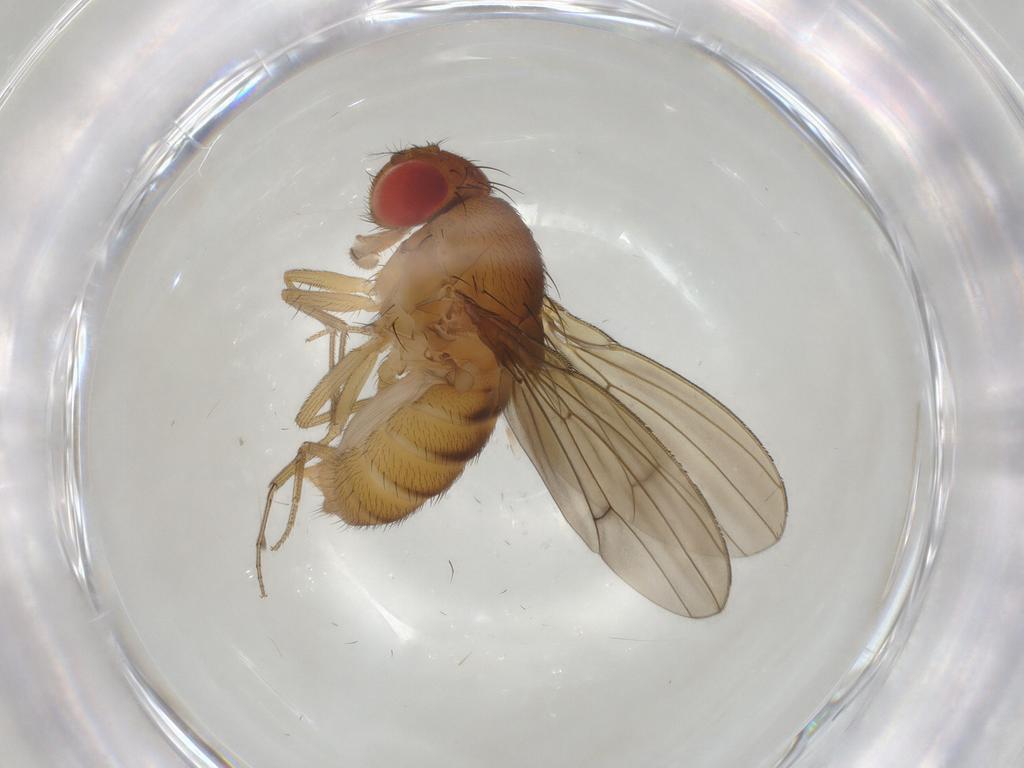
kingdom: Animalia
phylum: Arthropoda
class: Insecta
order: Diptera
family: Drosophilidae
